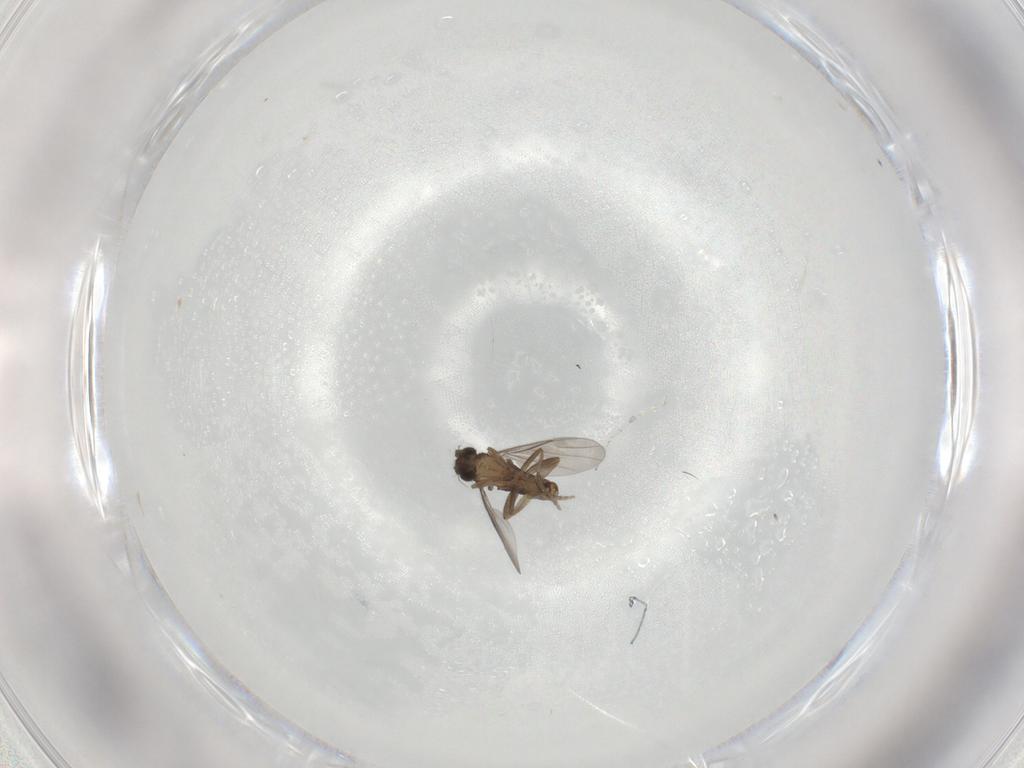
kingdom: Animalia
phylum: Arthropoda
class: Insecta
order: Diptera
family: Phoridae
